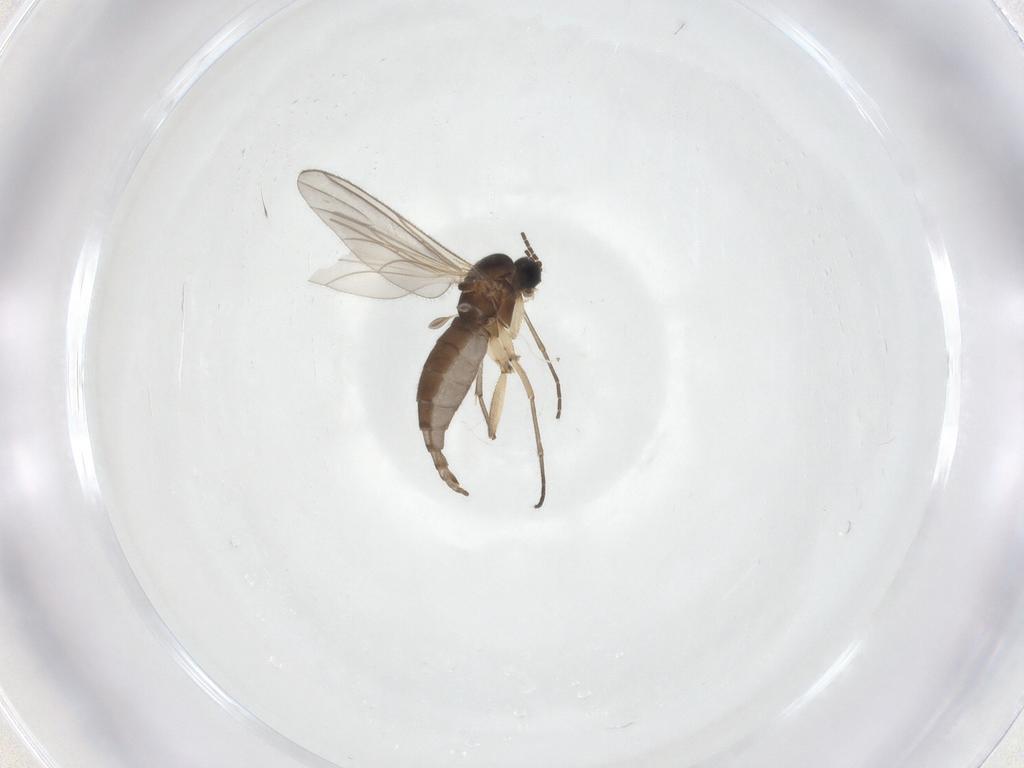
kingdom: Animalia
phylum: Arthropoda
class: Insecta
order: Diptera
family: Sciaridae
